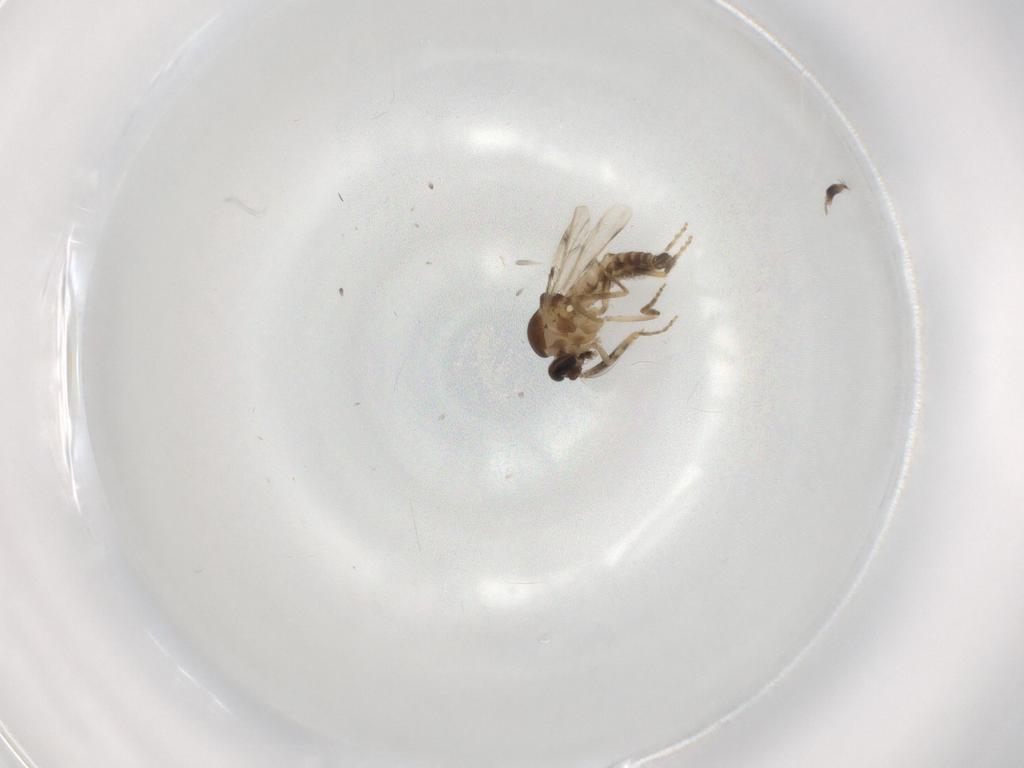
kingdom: Animalia
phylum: Arthropoda
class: Insecta
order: Diptera
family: Ceratopogonidae
